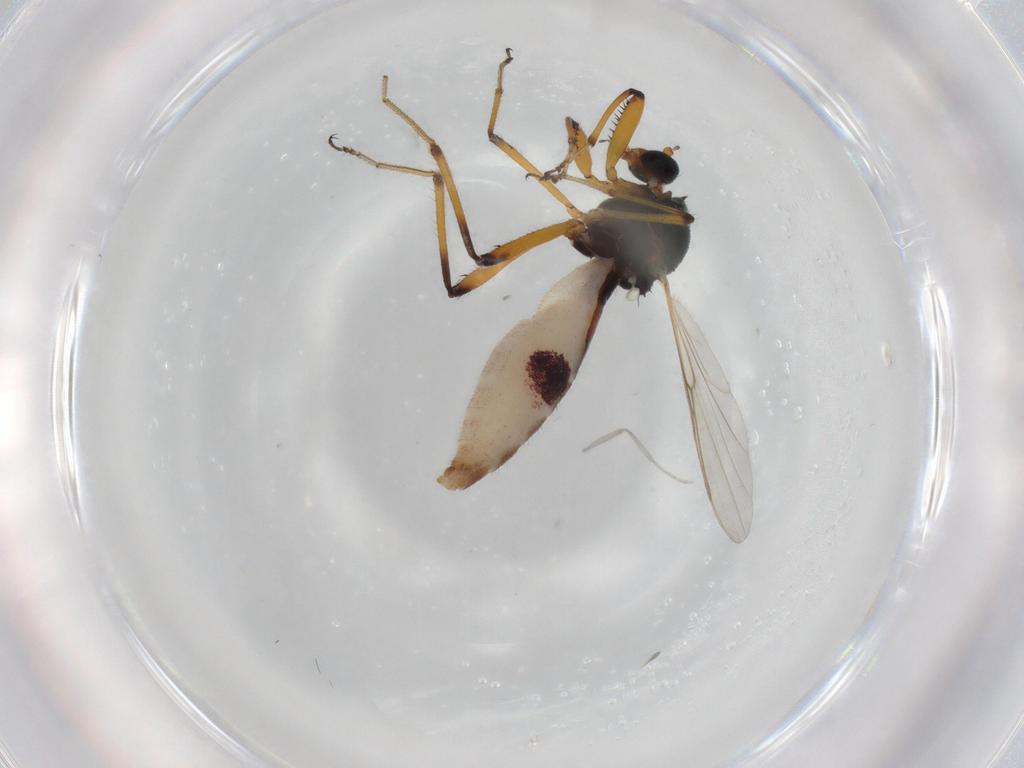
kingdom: Animalia
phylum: Arthropoda
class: Insecta
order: Diptera
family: Ceratopogonidae
